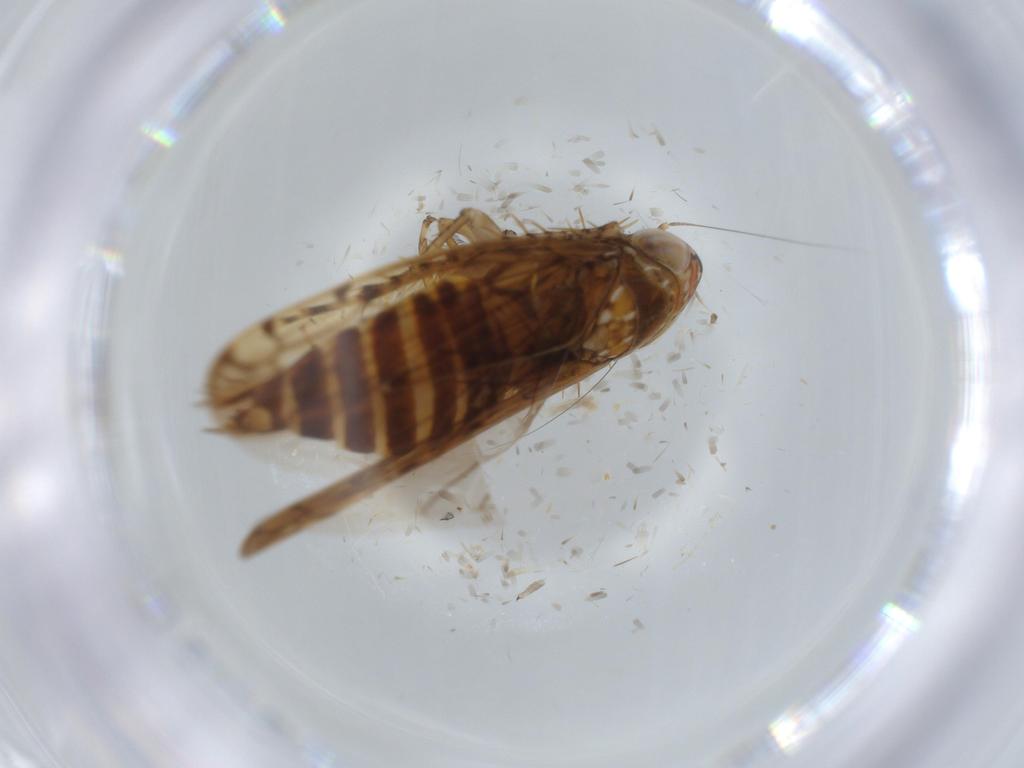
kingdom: Animalia
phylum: Arthropoda
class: Insecta
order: Hemiptera
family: Cicadellidae
